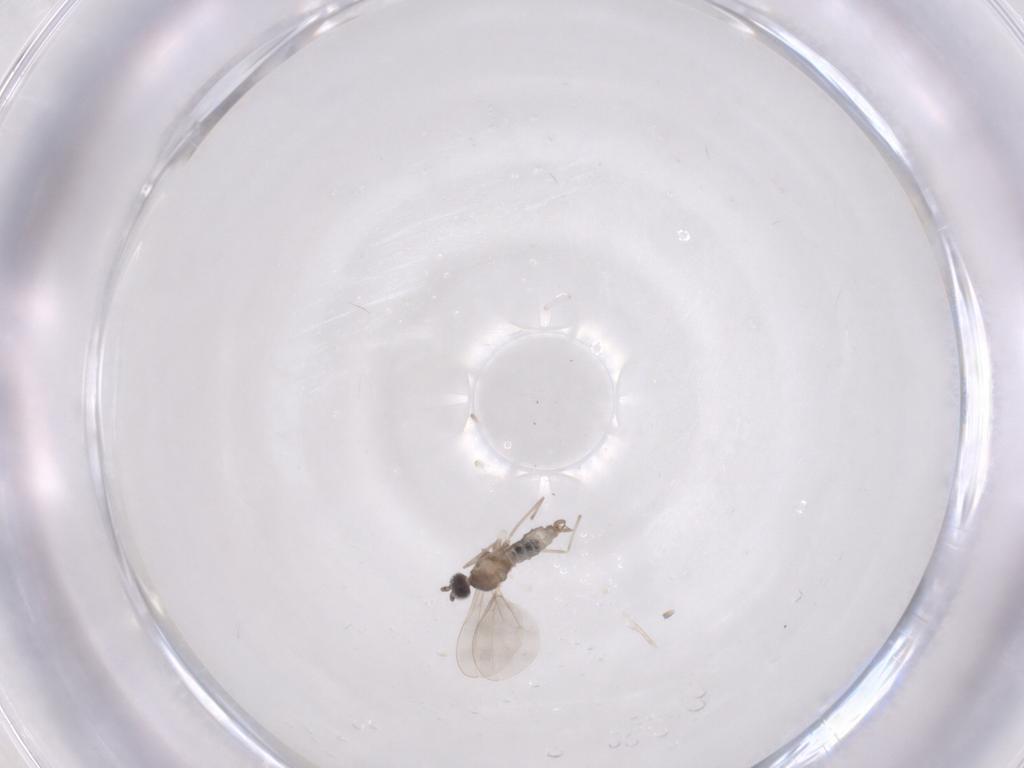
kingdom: Animalia
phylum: Arthropoda
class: Insecta
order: Diptera
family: Cecidomyiidae
